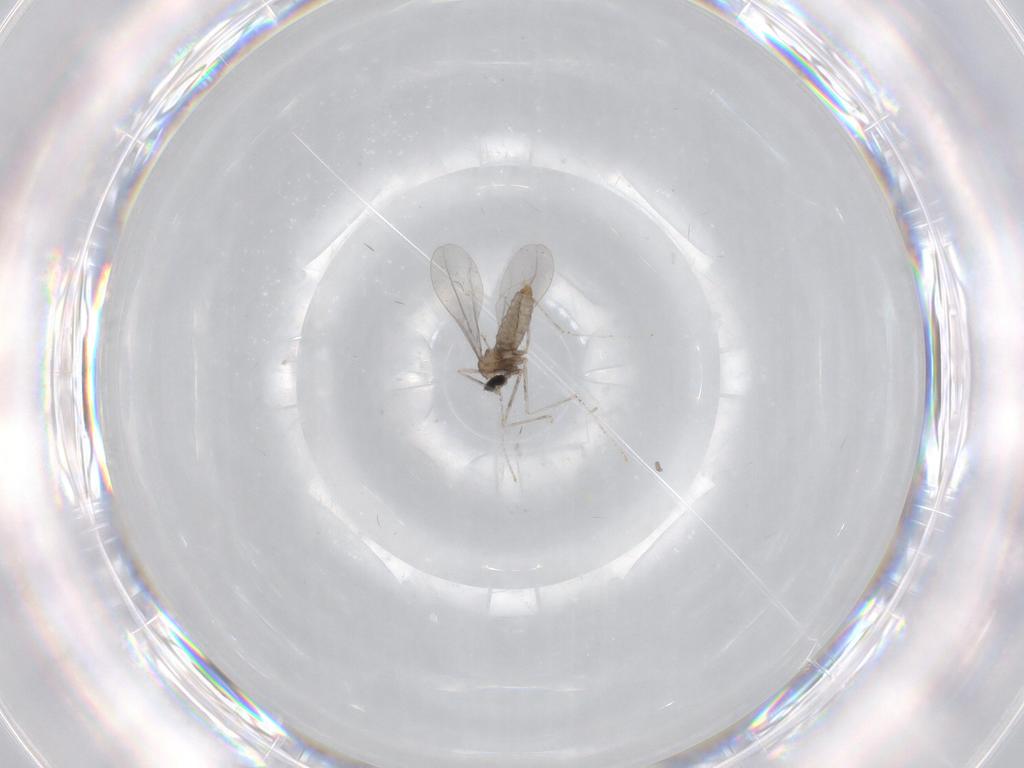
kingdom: Animalia
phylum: Arthropoda
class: Insecta
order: Diptera
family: Cecidomyiidae
